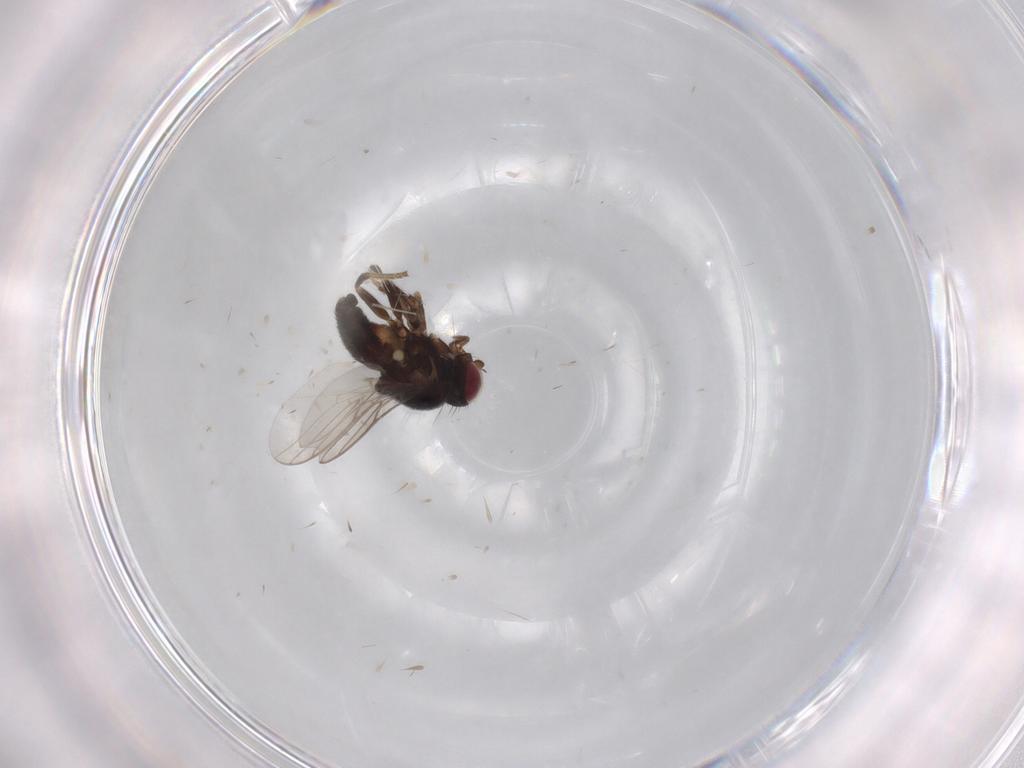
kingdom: Animalia
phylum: Arthropoda
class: Insecta
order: Diptera
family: Chloropidae
